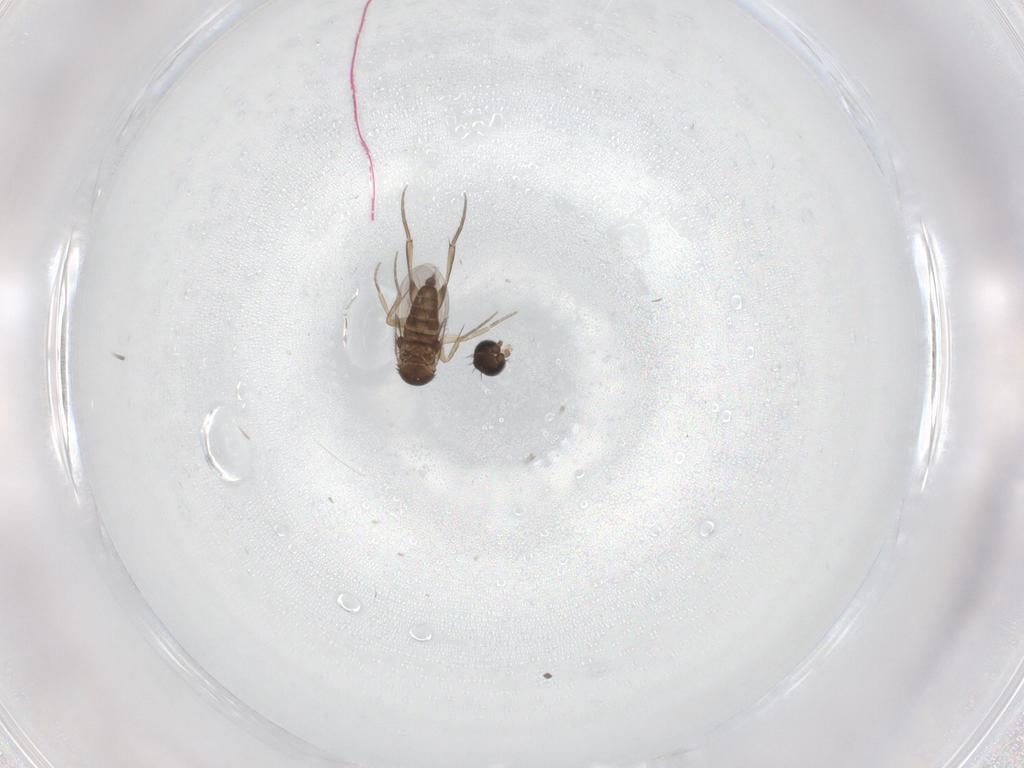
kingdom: Animalia
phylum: Arthropoda
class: Insecta
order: Diptera
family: Phoridae
